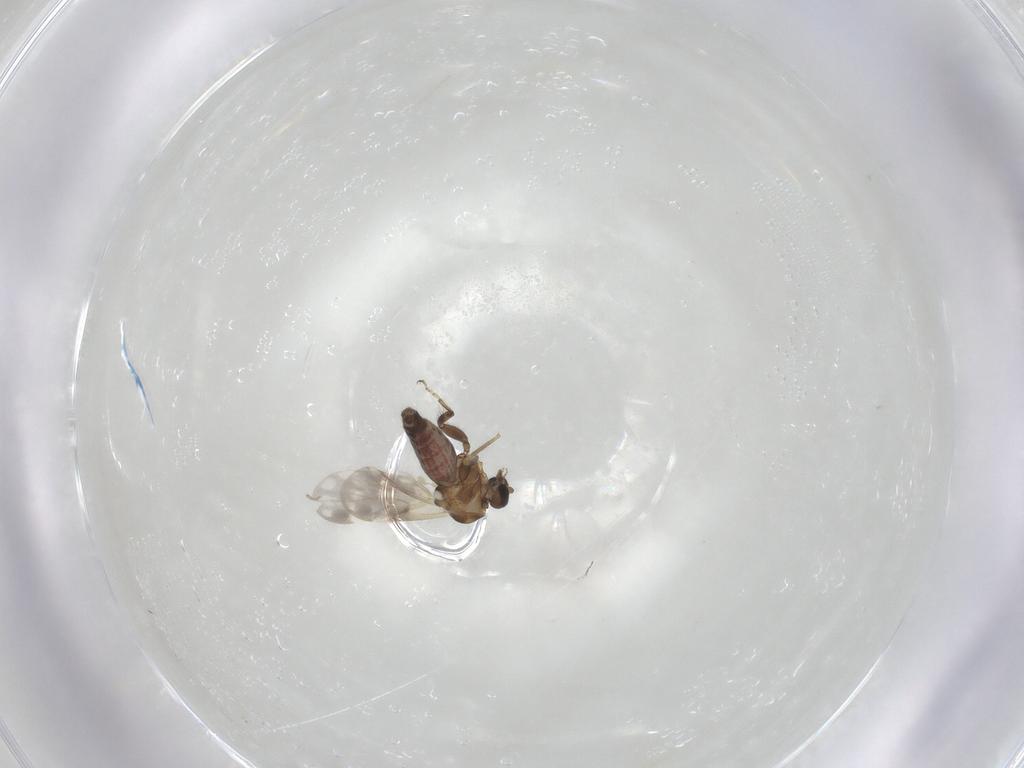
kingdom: Animalia
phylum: Arthropoda
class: Insecta
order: Diptera
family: Ceratopogonidae
